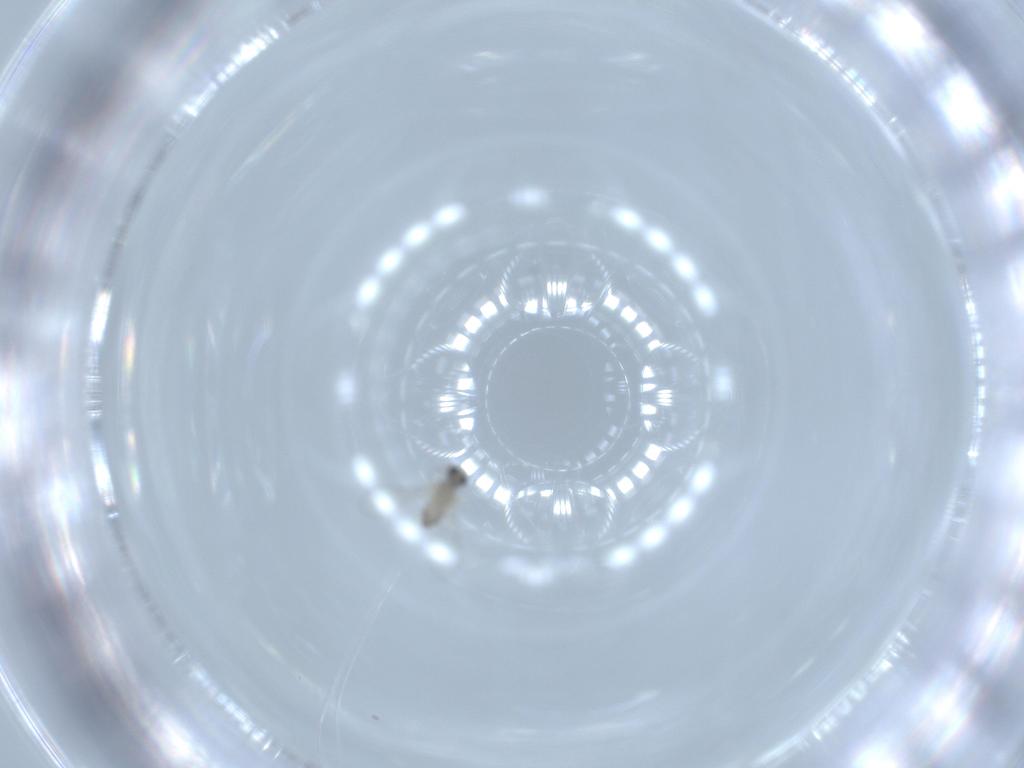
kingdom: Animalia
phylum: Arthropoda
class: Insecta
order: Diptera
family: Cecidomyiidae
